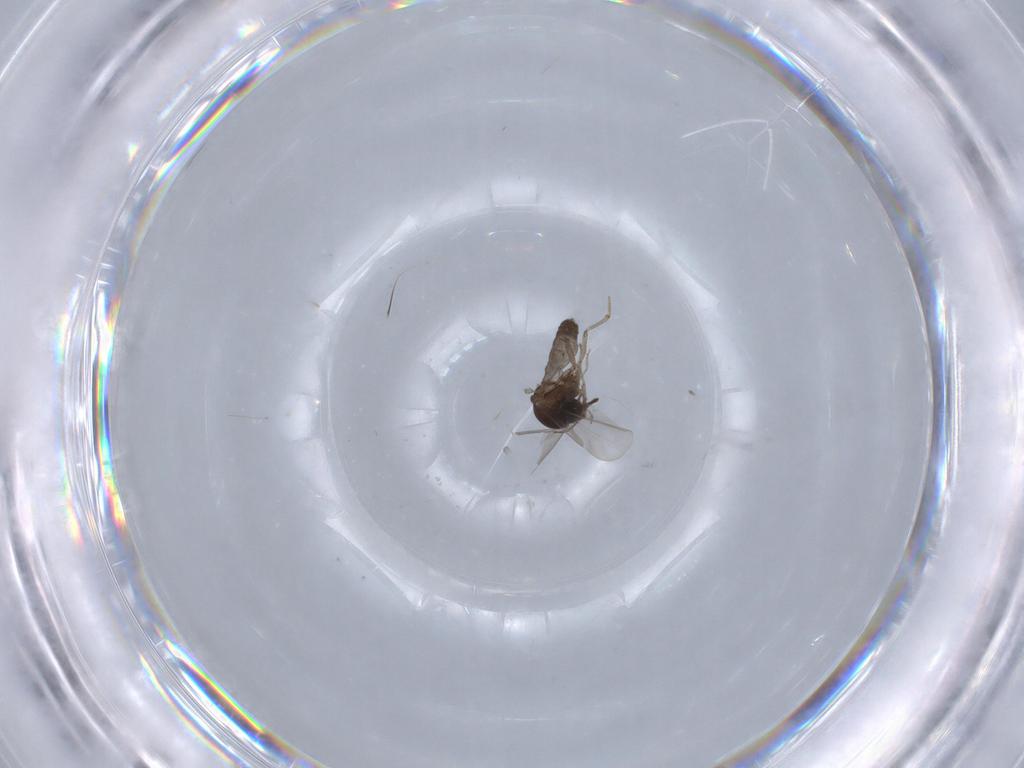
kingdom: Animalia
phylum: Arthropoda
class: Insecta
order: Diptera
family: Ceratopogonidae
